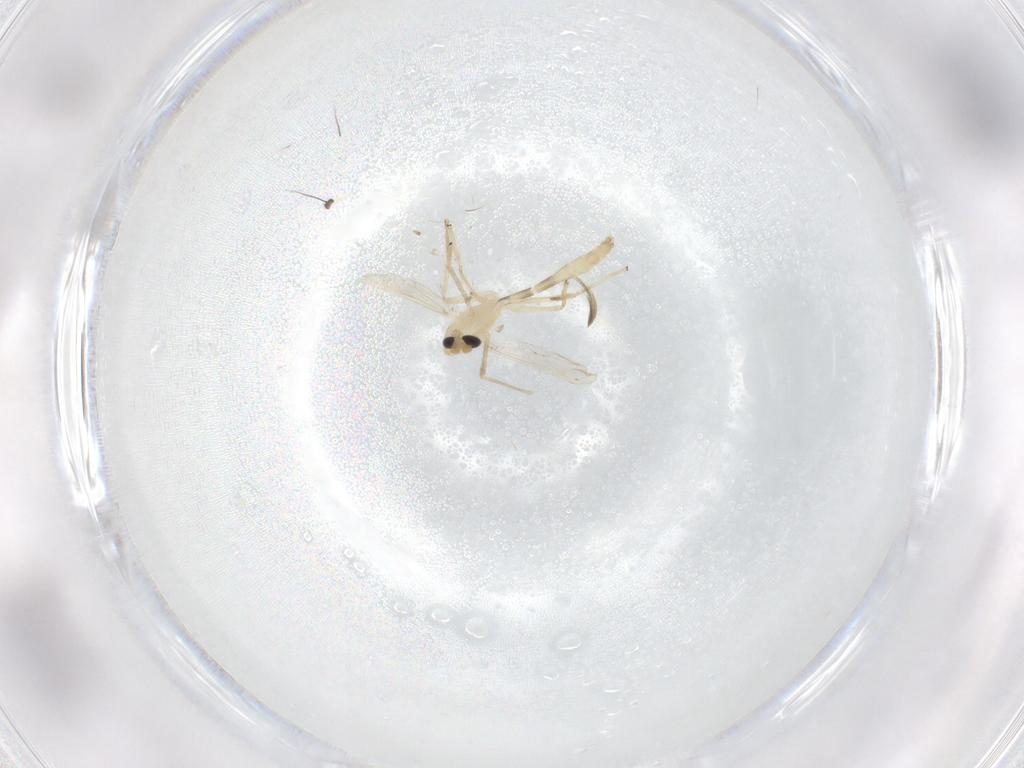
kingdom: Animalia
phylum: Arthropoda
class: Insecta
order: Diptera
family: Chironomidae
